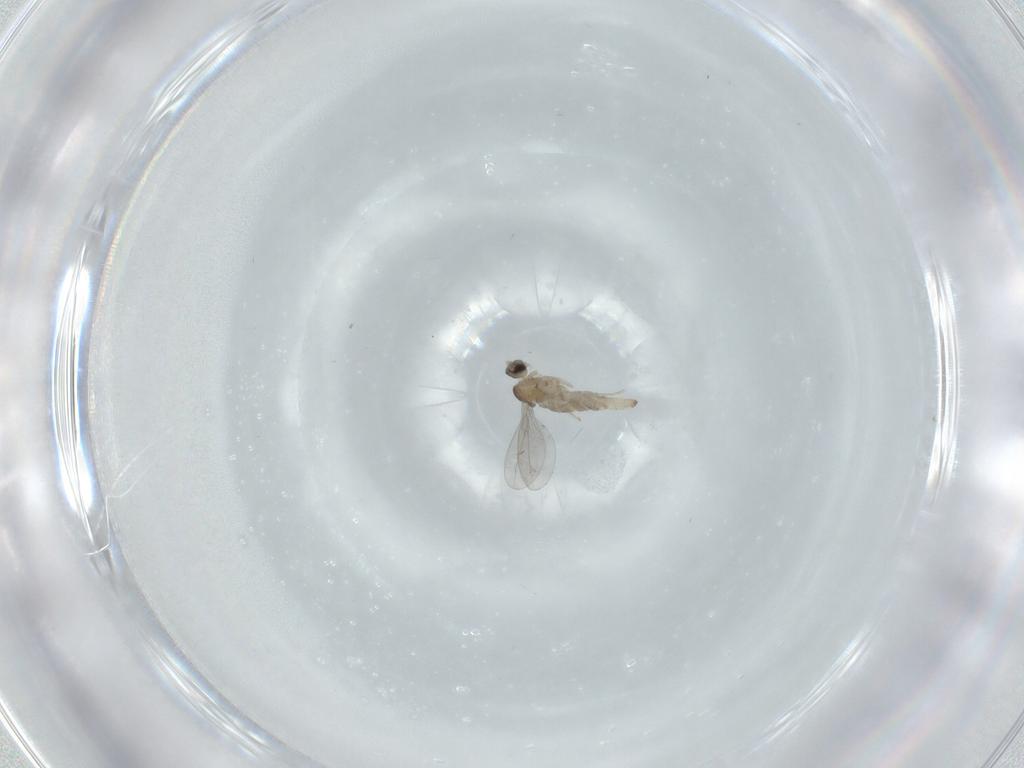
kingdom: Animalia
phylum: Arthropoda
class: Insecta
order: Diptera
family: Cecidomyiidae
